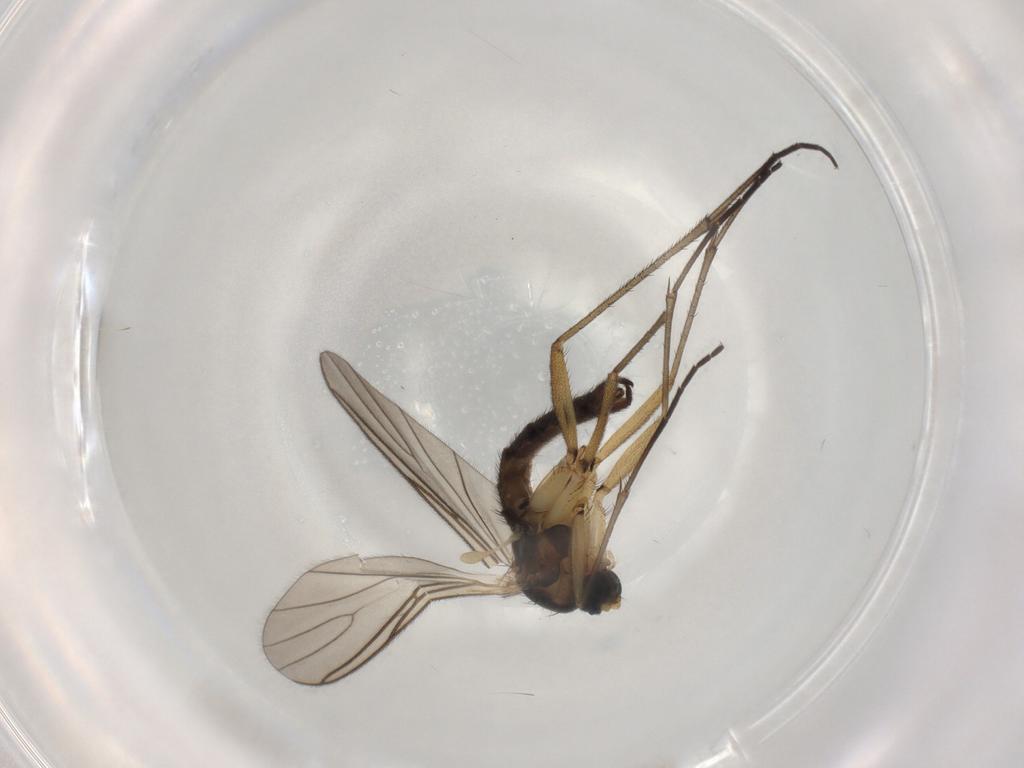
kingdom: Animalia
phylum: Arthropoda
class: Insecta
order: Diptera
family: Sciaridae
